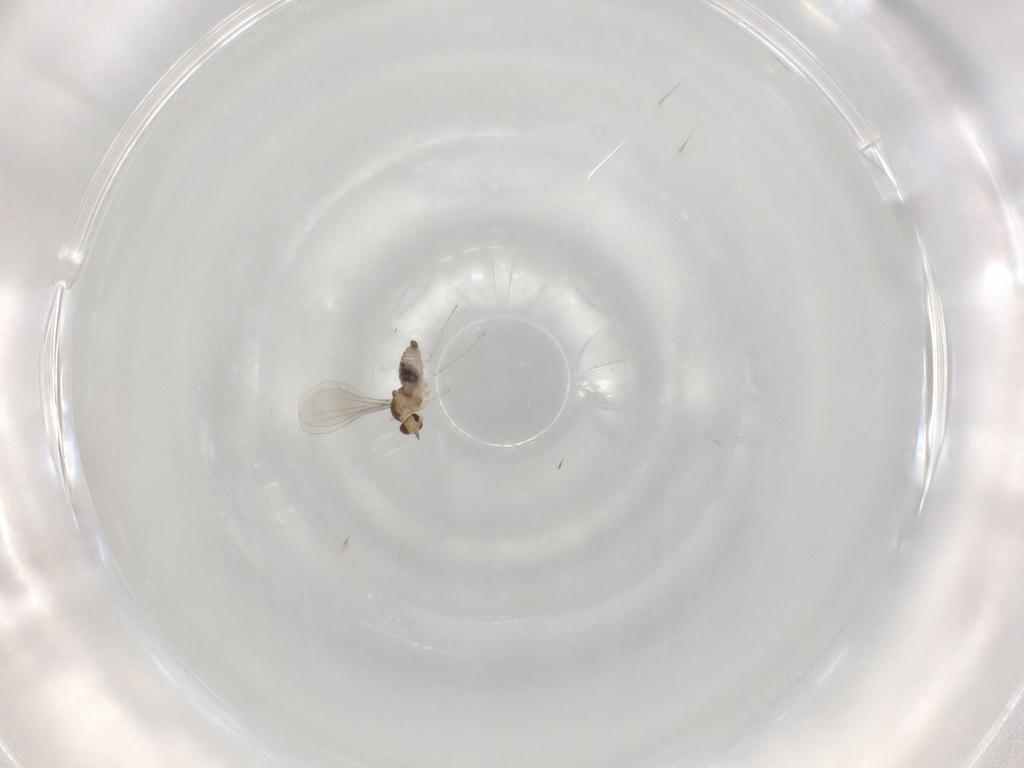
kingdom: Animalia
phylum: Arthropoda
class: Insecta
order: Diptera
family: Cecidomyiidae
